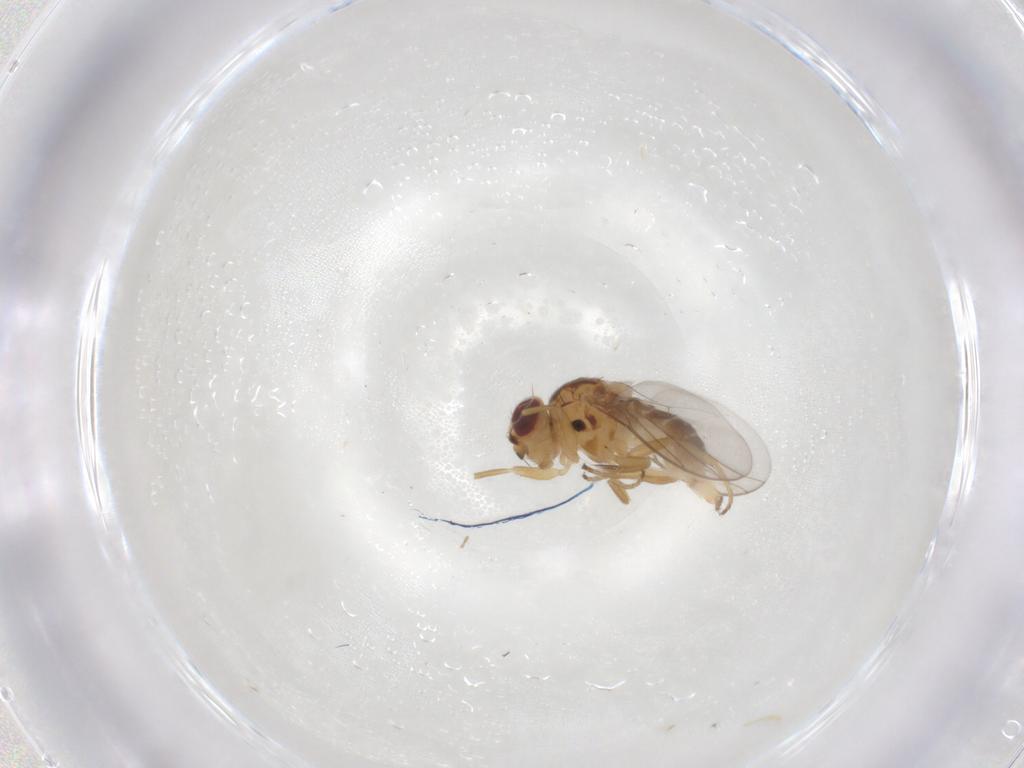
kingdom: Animalia
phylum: Arthropoda
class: Insecta
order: Diptera
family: Chloropidae
